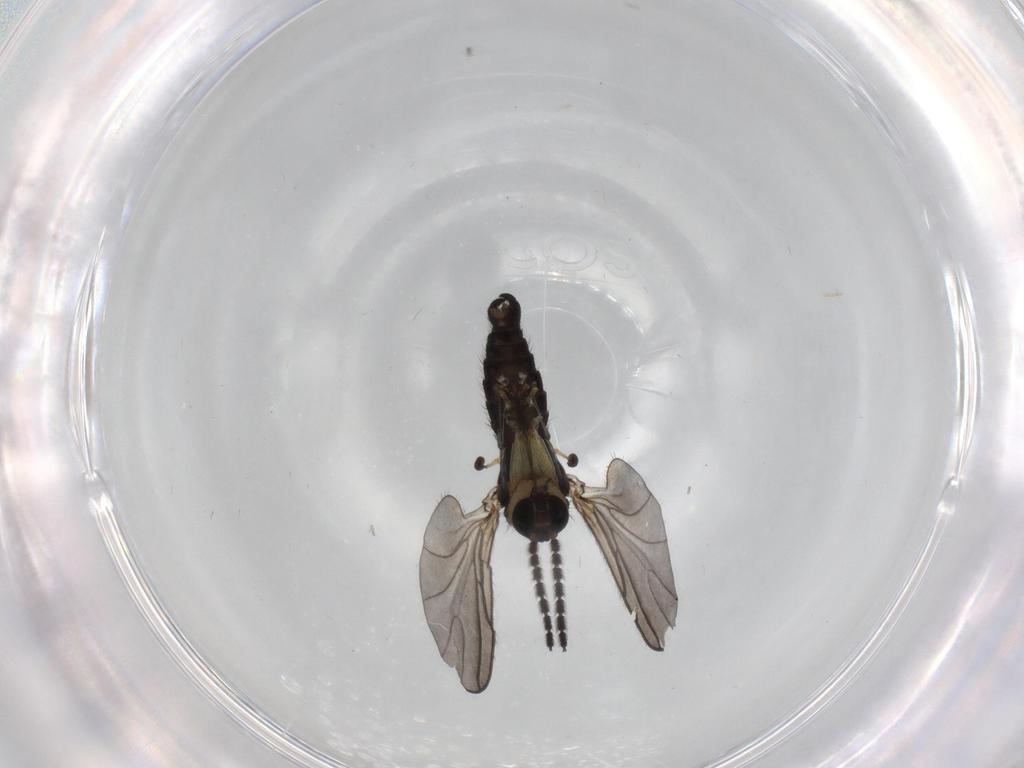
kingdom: Animalia
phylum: Arthropoda
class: Insecta
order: Diptera
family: Sciaridae
